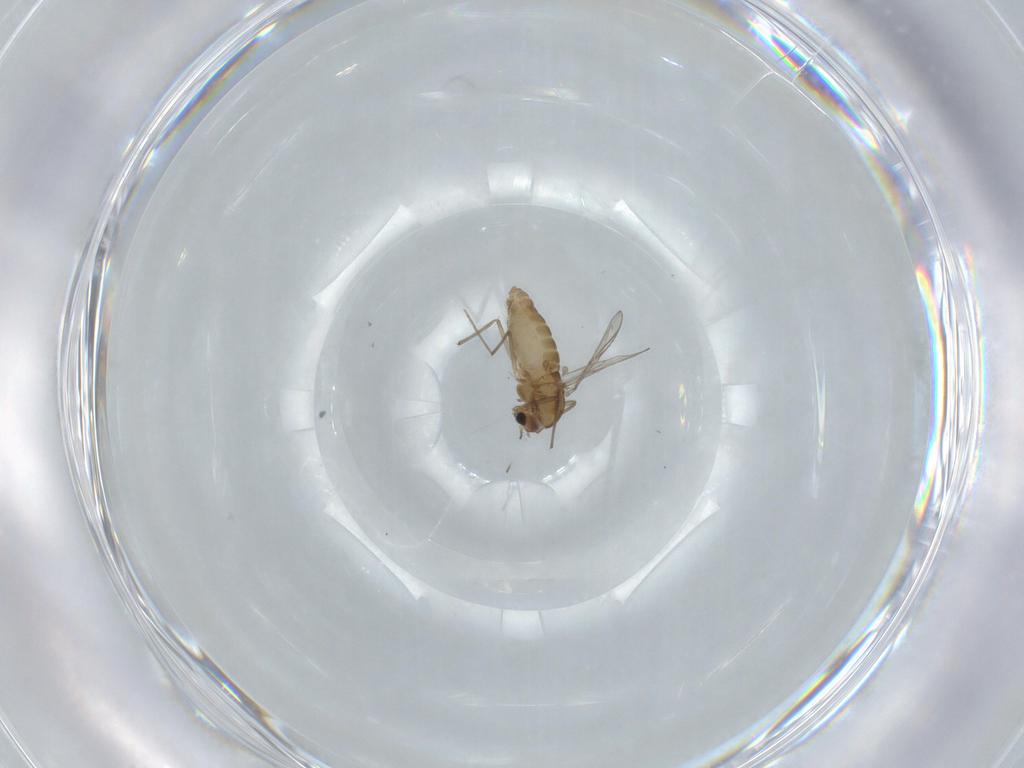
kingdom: Animalia
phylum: Arthropoda
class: Insecta
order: Diptera
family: Chironomidae
